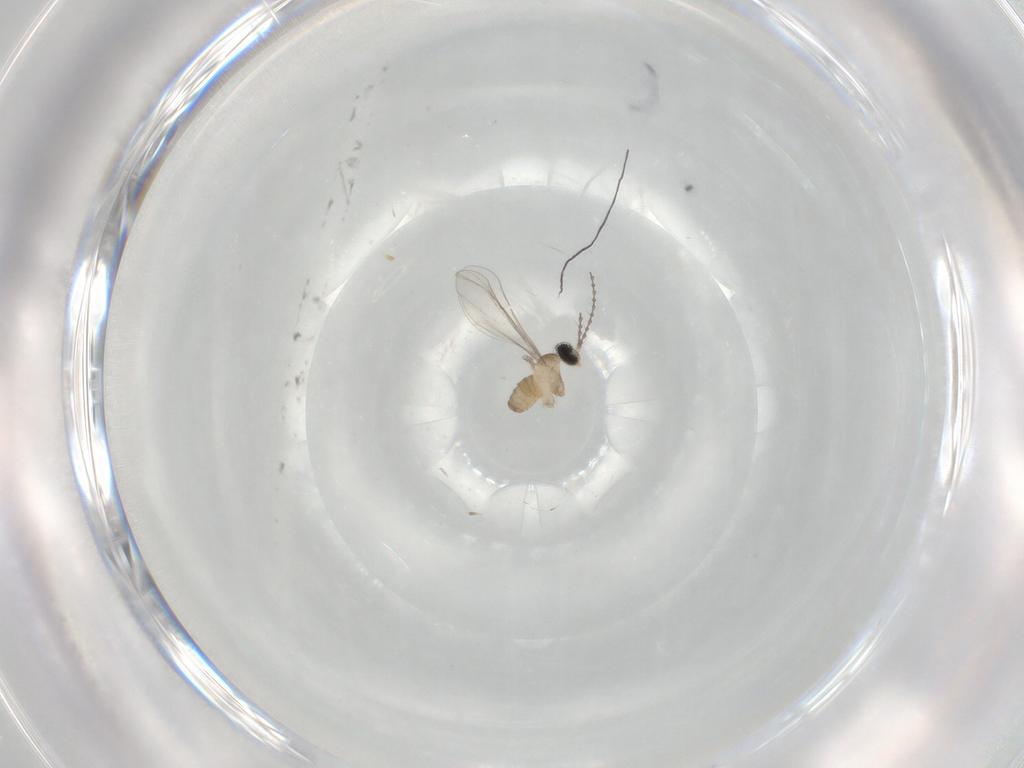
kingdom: Animalia
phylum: Arthropoda
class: Insecta
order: Diptera
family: Cecidomyiidae
